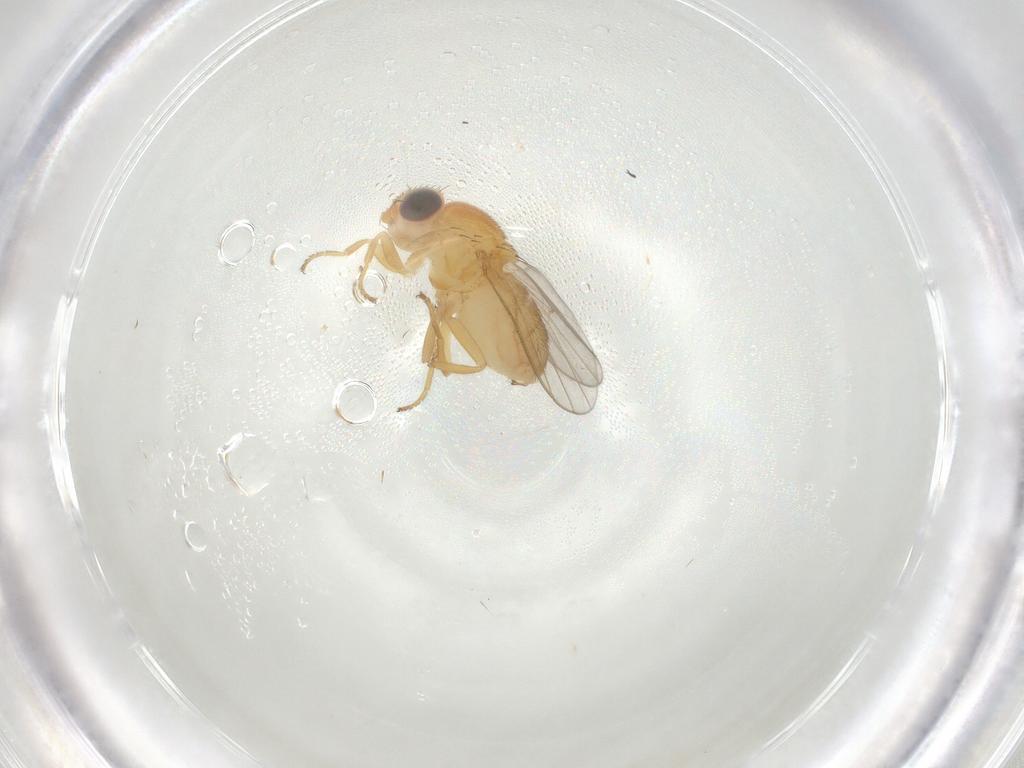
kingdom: Animalia
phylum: Arthropoda
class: Insecta
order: Diptera
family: Chloropidae
